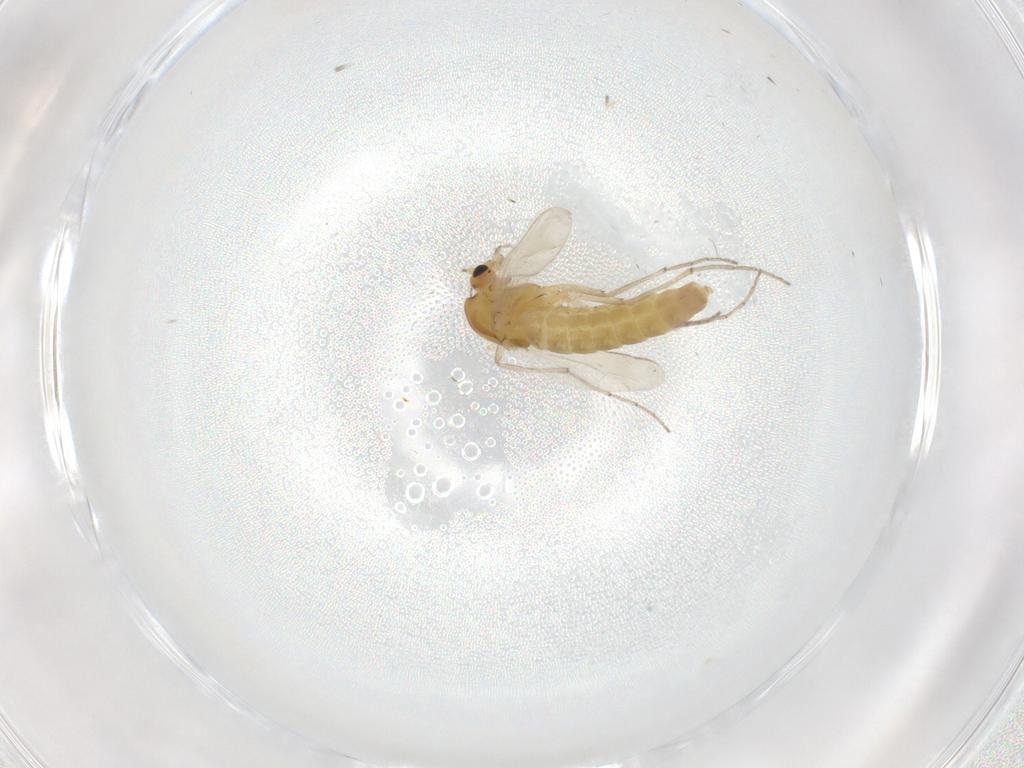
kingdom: Animalia
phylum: Arthropoda
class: Insecta
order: Diptera
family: Chironomidae
